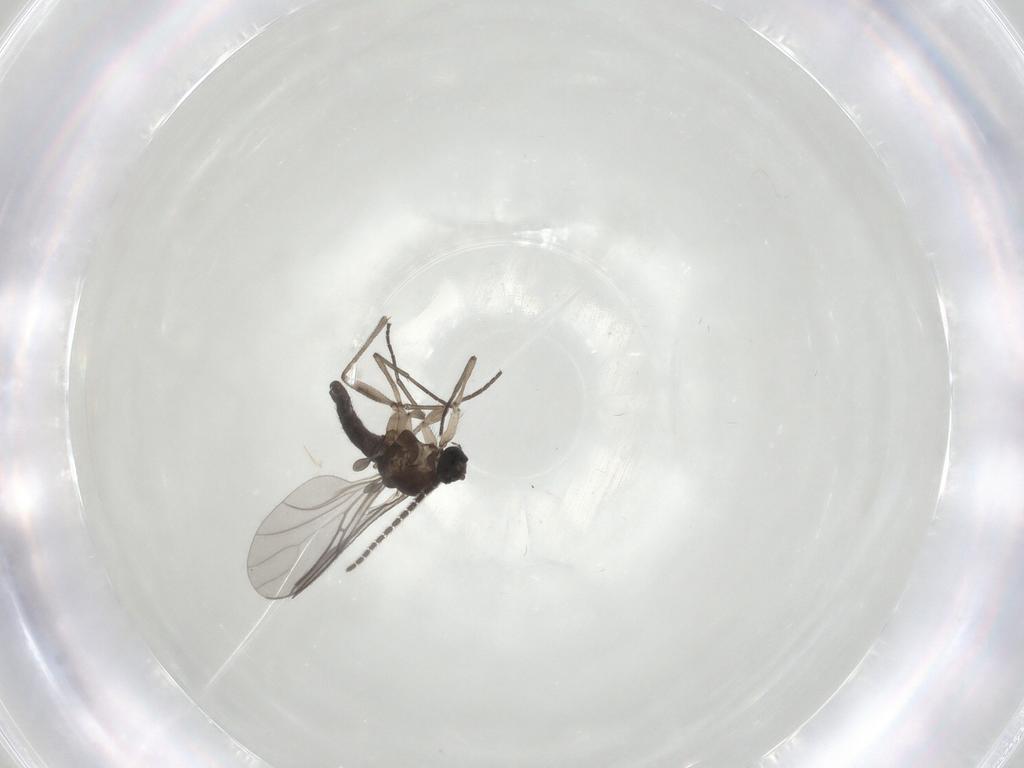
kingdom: Animalia
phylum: Arthropoda
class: Insecta
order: Diptera
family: Sciaridae
